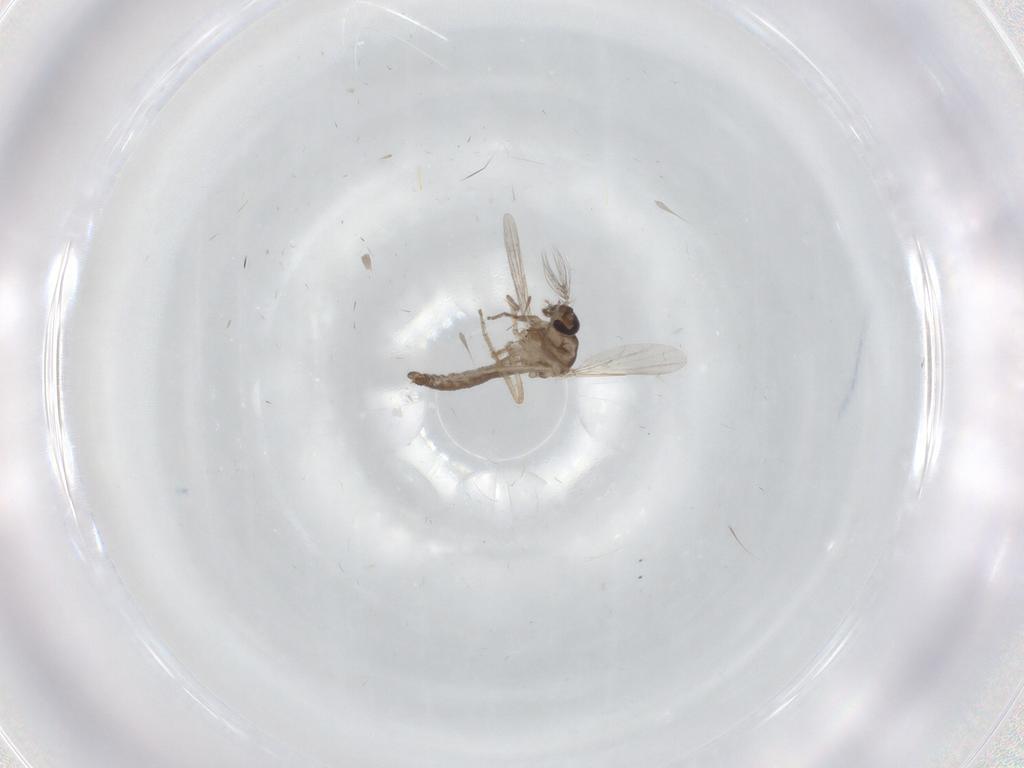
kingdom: Animalia
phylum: Arthropoda
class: Insecta
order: Diptera
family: Ceratopogonidae
